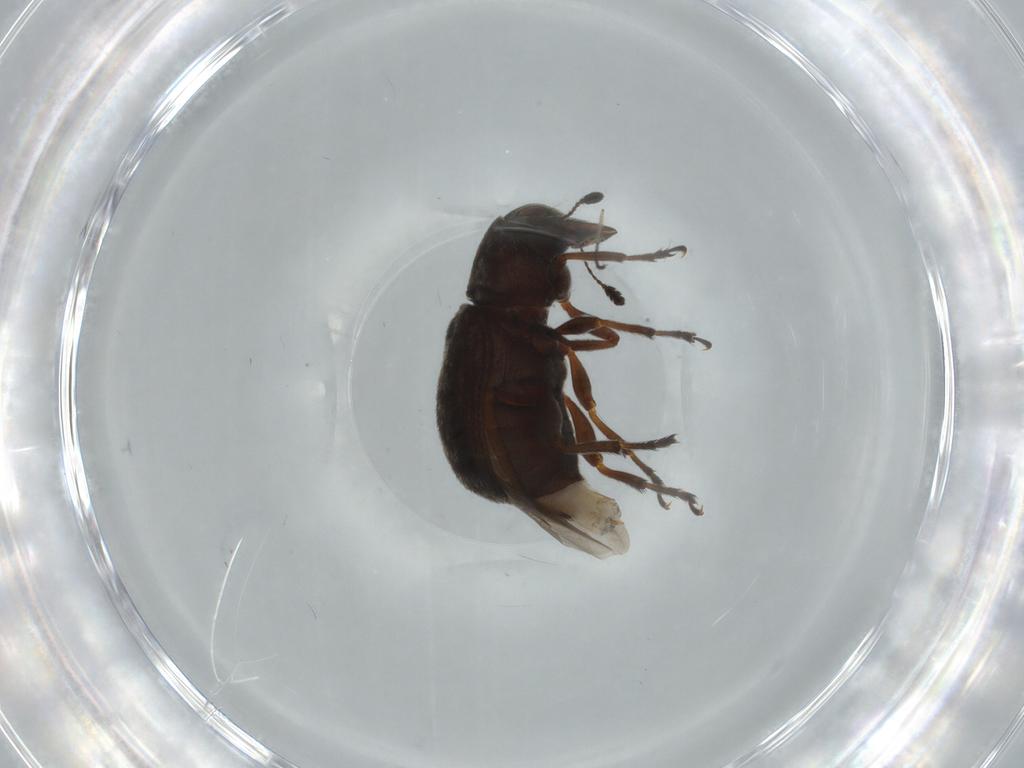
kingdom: Animalia
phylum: Arthropoda
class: Insecta
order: Coleoptera
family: Anthribidae
